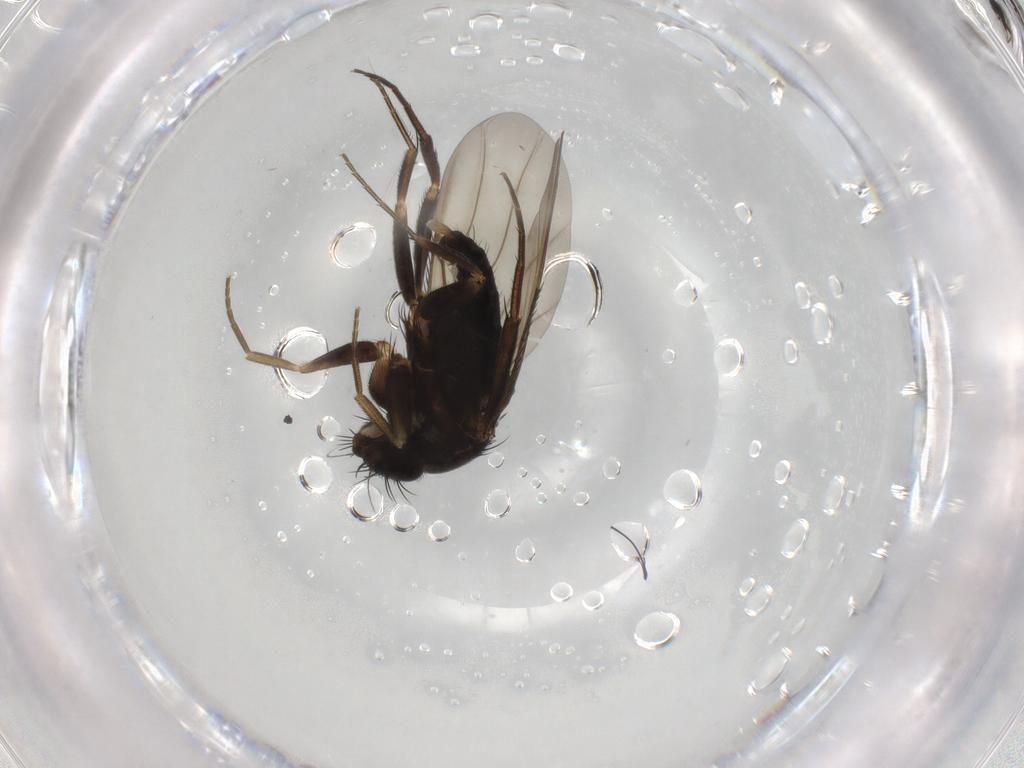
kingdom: Animalia
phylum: Arthropoda
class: Insecta
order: Diptera
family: Phoridae
